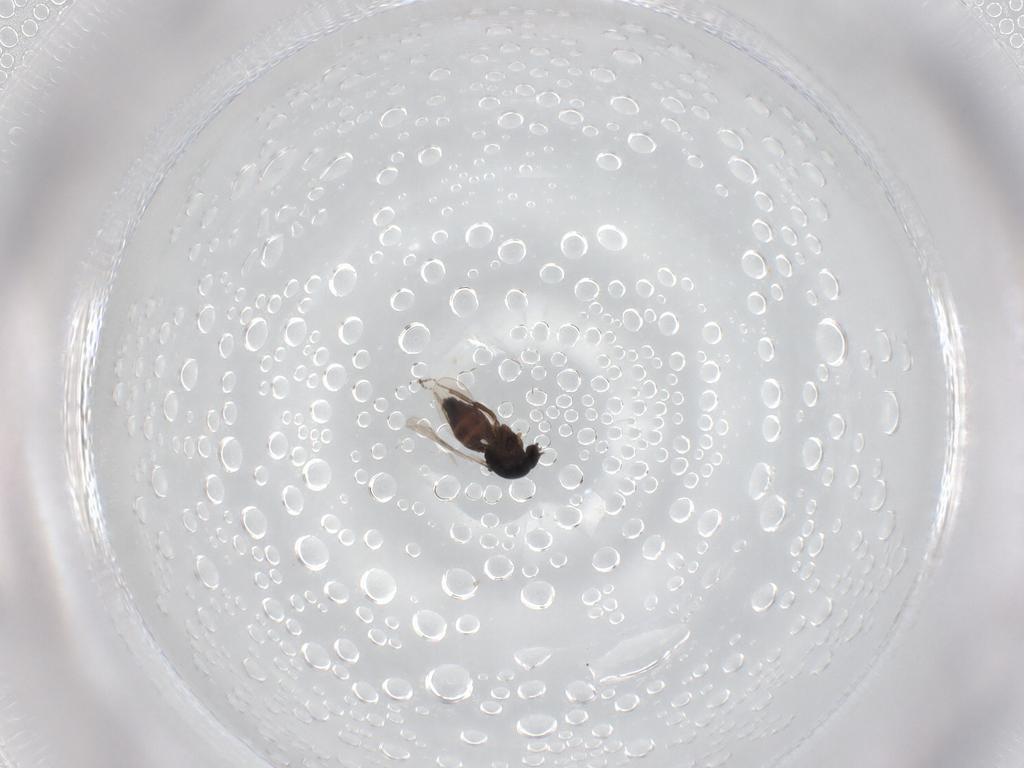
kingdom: Animalia
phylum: Arthropoda
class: Insecta
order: Diptera
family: Ceratopogonidae
